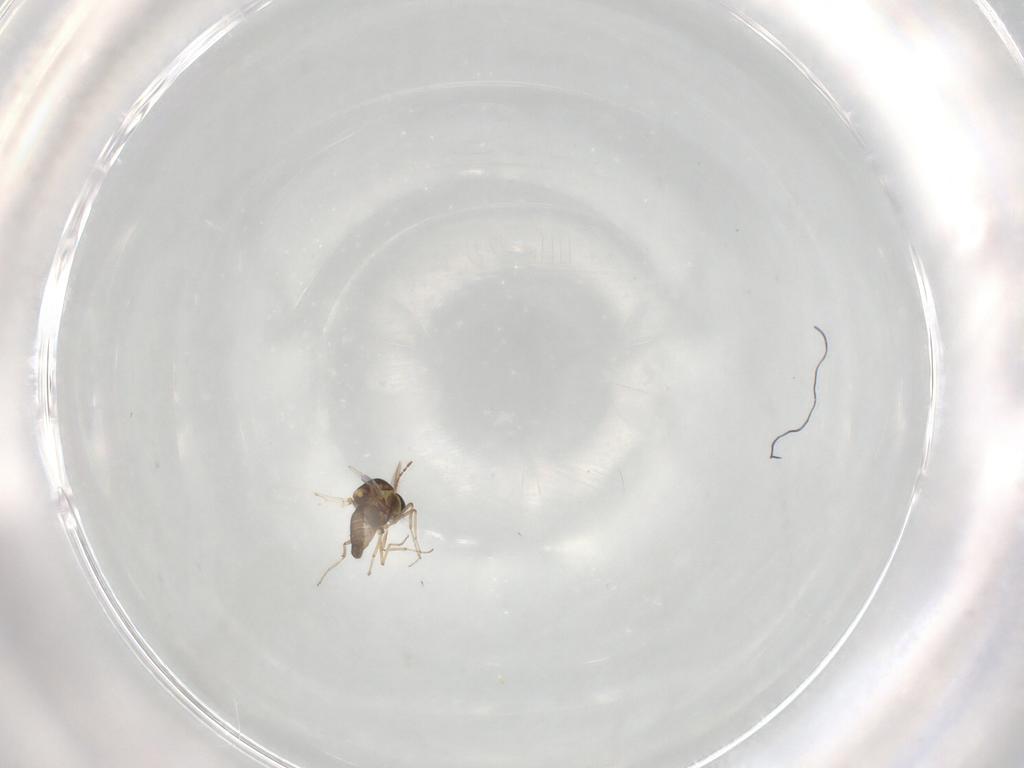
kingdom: Animalia
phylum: Arthropoda
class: Insecta
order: Diptera
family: Ceratopogonidae
